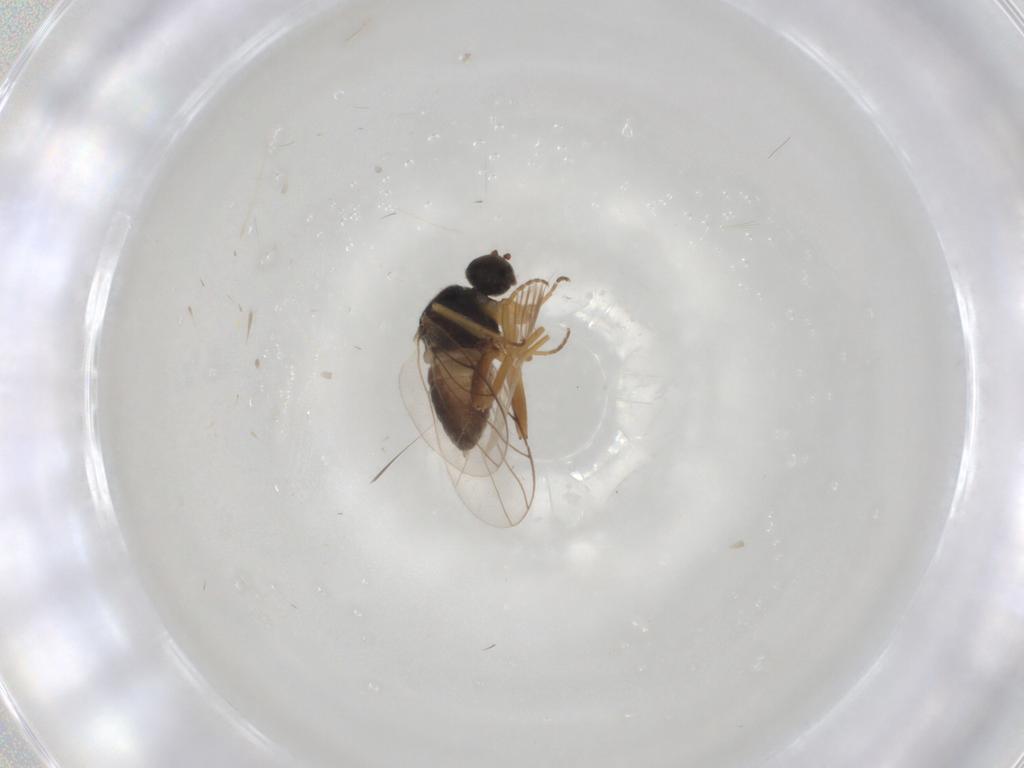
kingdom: Animalia
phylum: Arthropoda
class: Insecta
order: Diptera
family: Hybotidae
